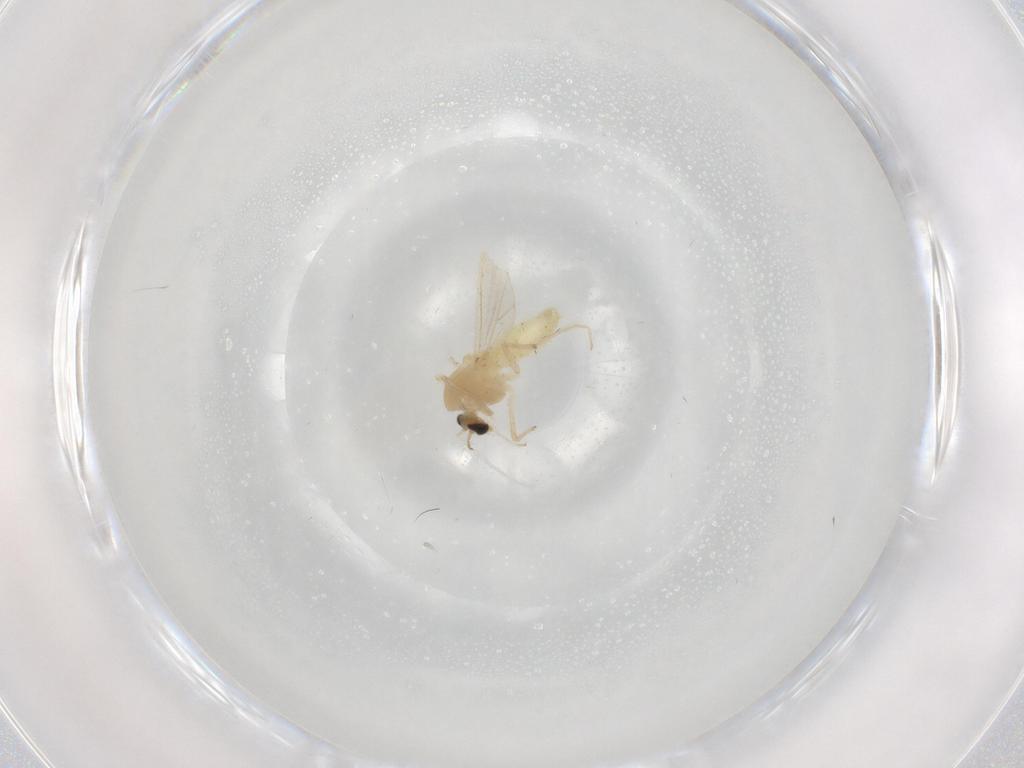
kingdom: Animalia
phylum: Arthropoda
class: Insecta
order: Diptera
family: Chironomidae
